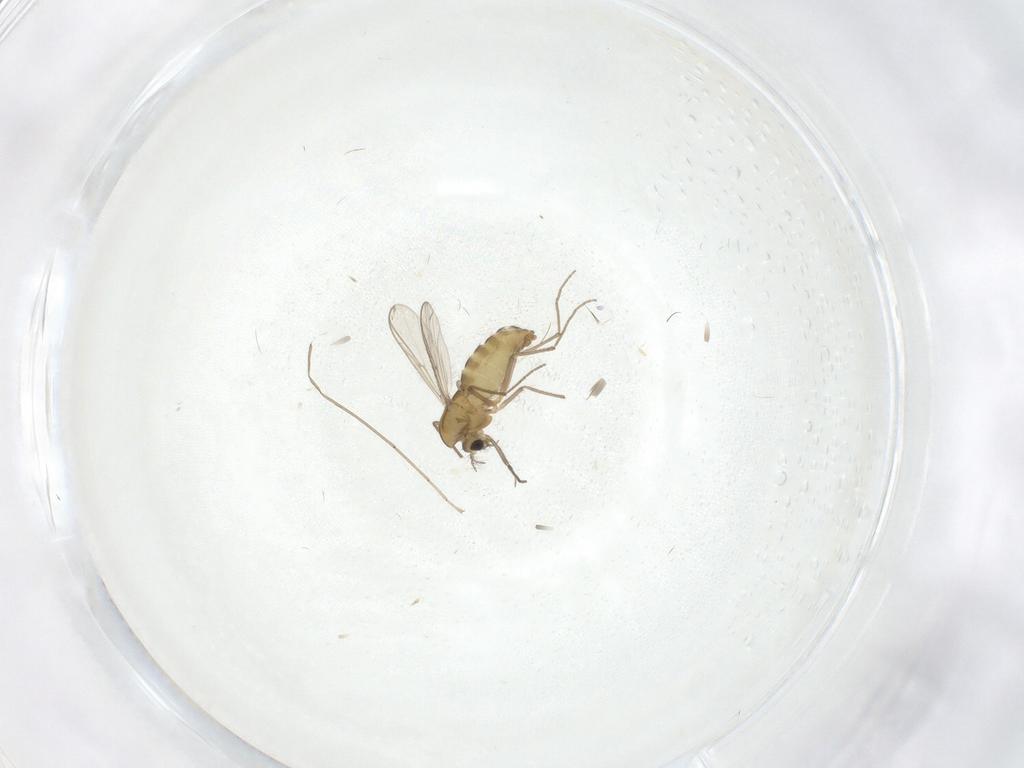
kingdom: Animalia
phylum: Arthropoda
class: Insecta
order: Diptera
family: Chironomidae
